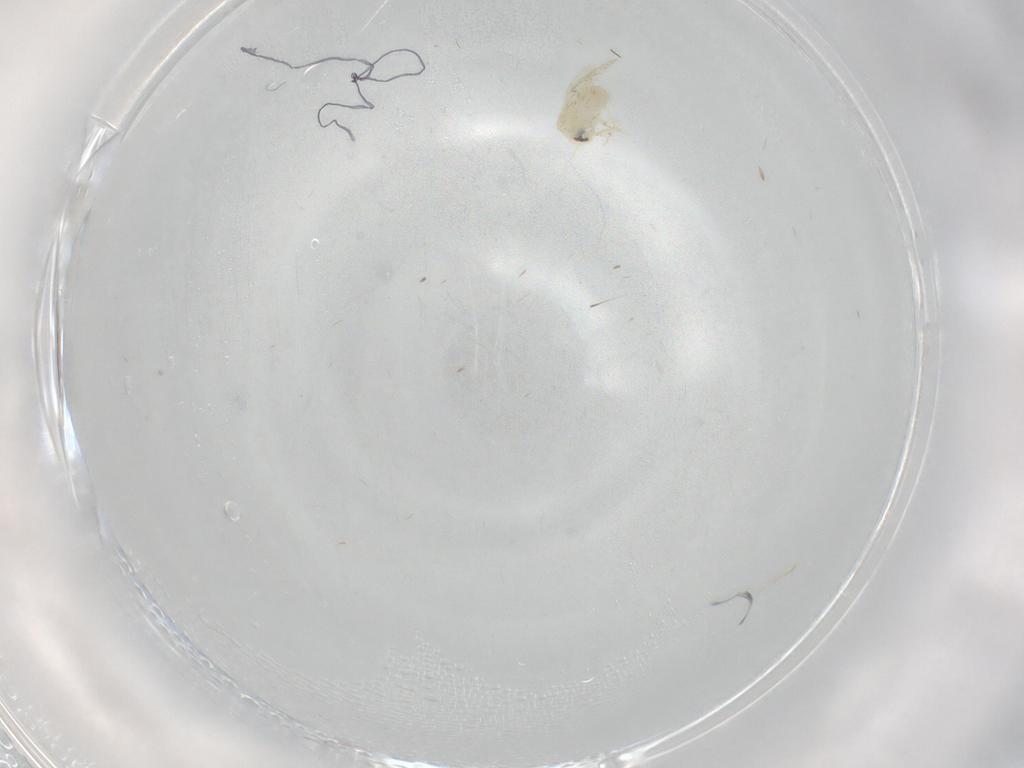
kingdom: Animalia
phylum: Arthropoda
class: Insecta
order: Hemiptera
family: Aleyrodidae
